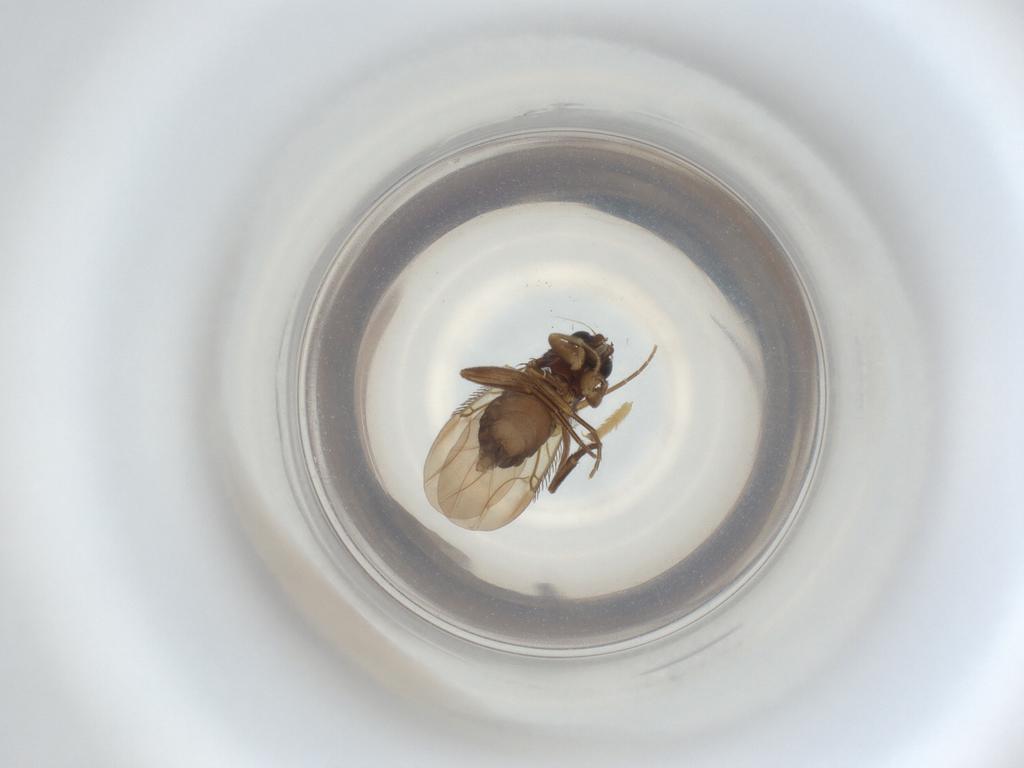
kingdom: Animalia
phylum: Arthropoda
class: Insecta
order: Diptera
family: Phoridae
